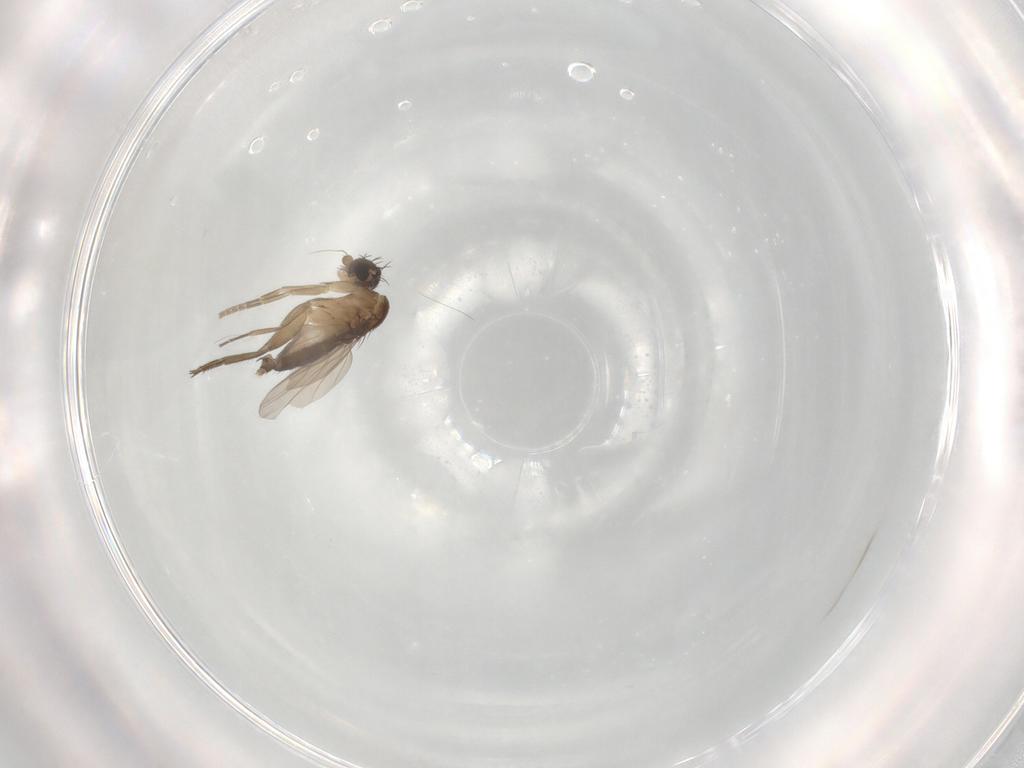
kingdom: Animalia
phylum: Arthropoda
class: Insecta
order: Diptera
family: Phoridae
